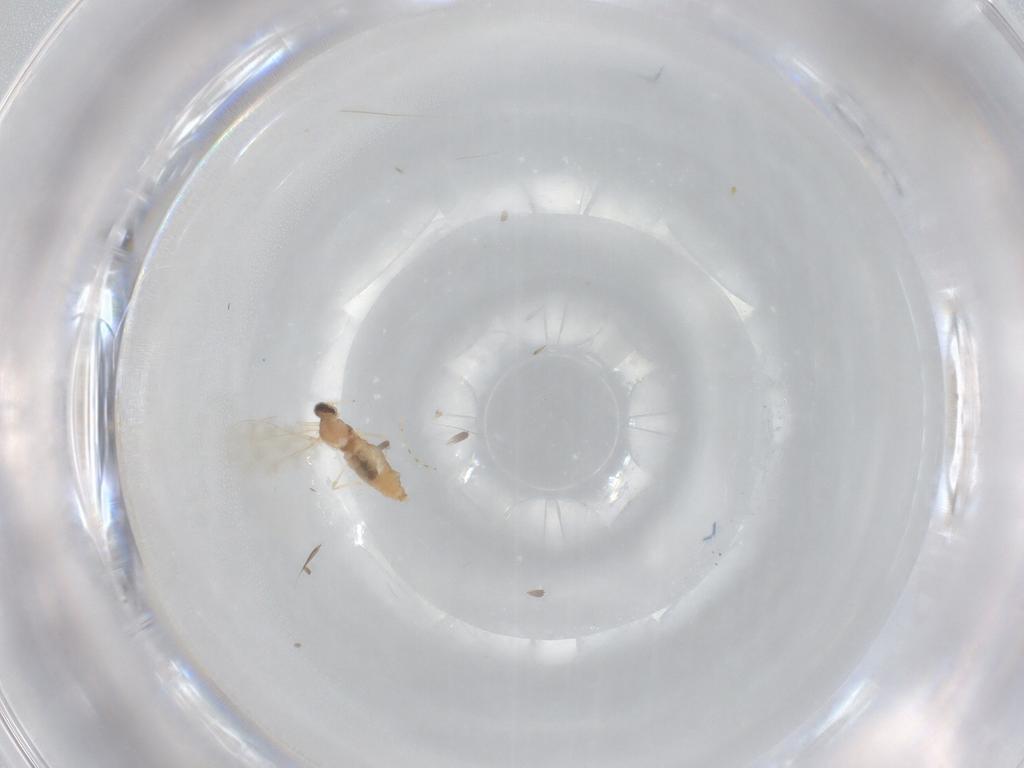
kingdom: Animalia
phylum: Arthropoda
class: Insecta
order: Diptera
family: Cecidomyiidae
